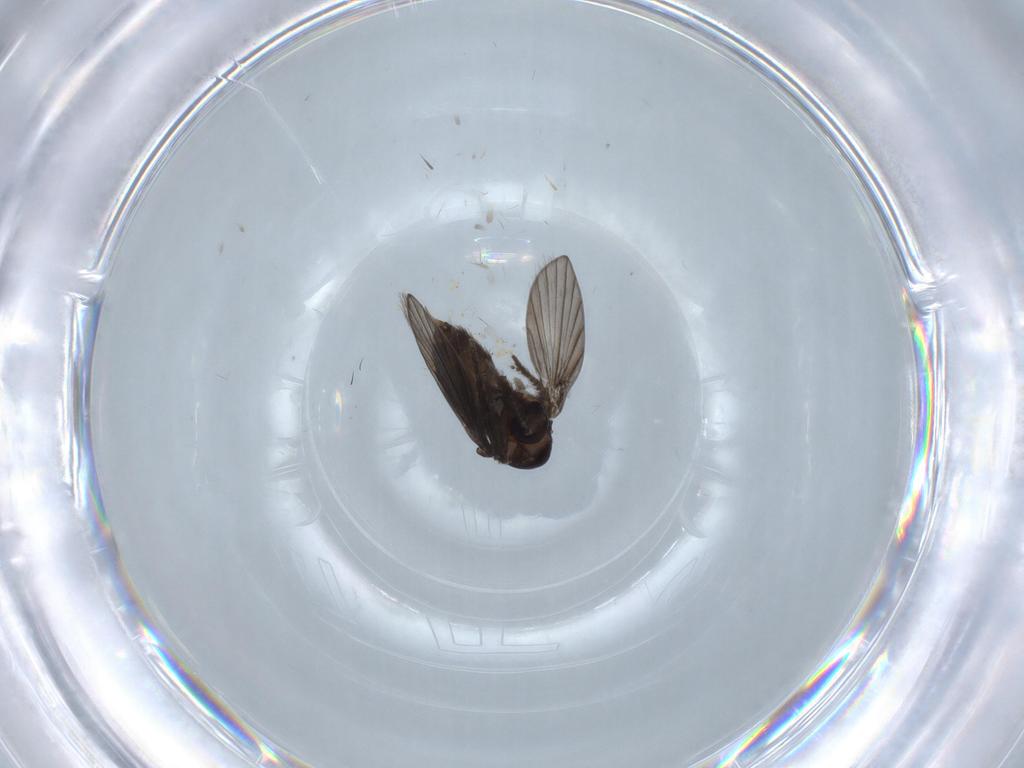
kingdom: Animalia
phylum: Arthropoda
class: Insecta
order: Diptera
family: Psychodidae
